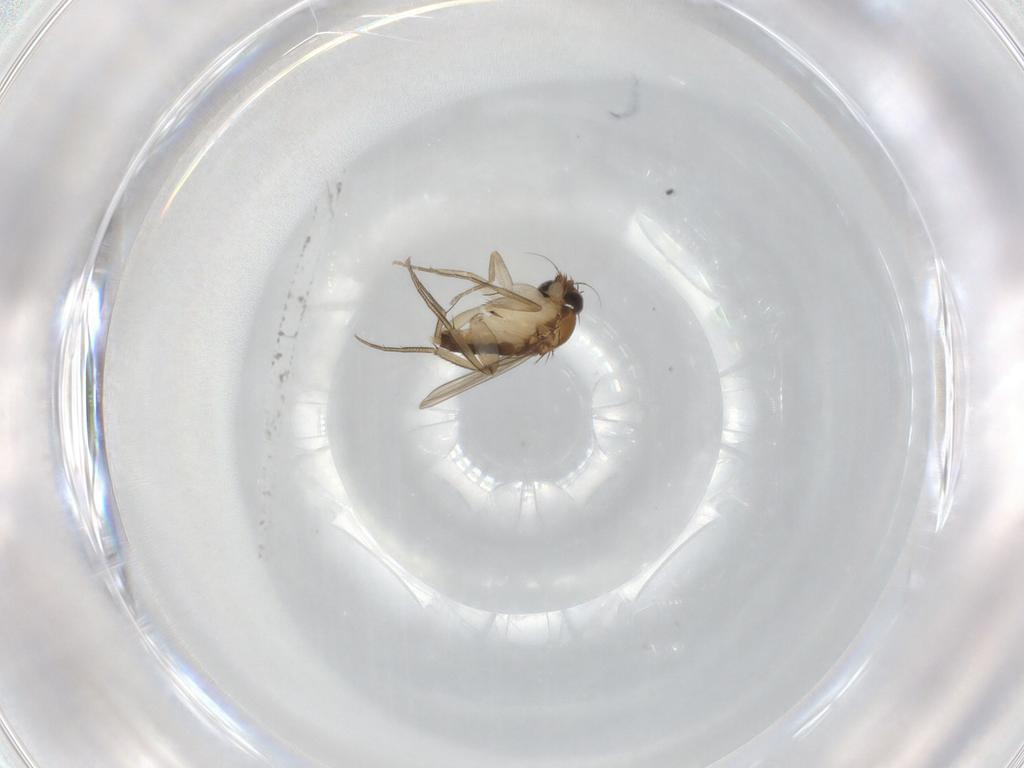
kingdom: Animalia
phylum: Arthropoda
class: Insecta
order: Diptera
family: Phoridae
